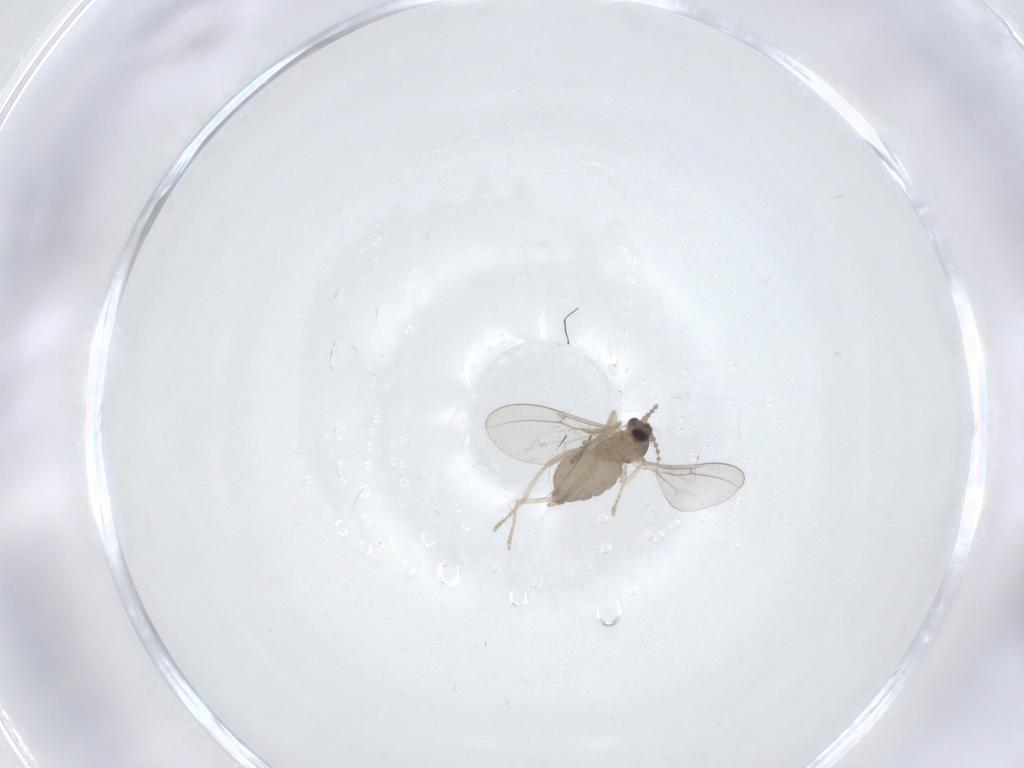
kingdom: Animalia
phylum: Arthropoda
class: Insecta
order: Diptera
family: Cecidomyiidae
